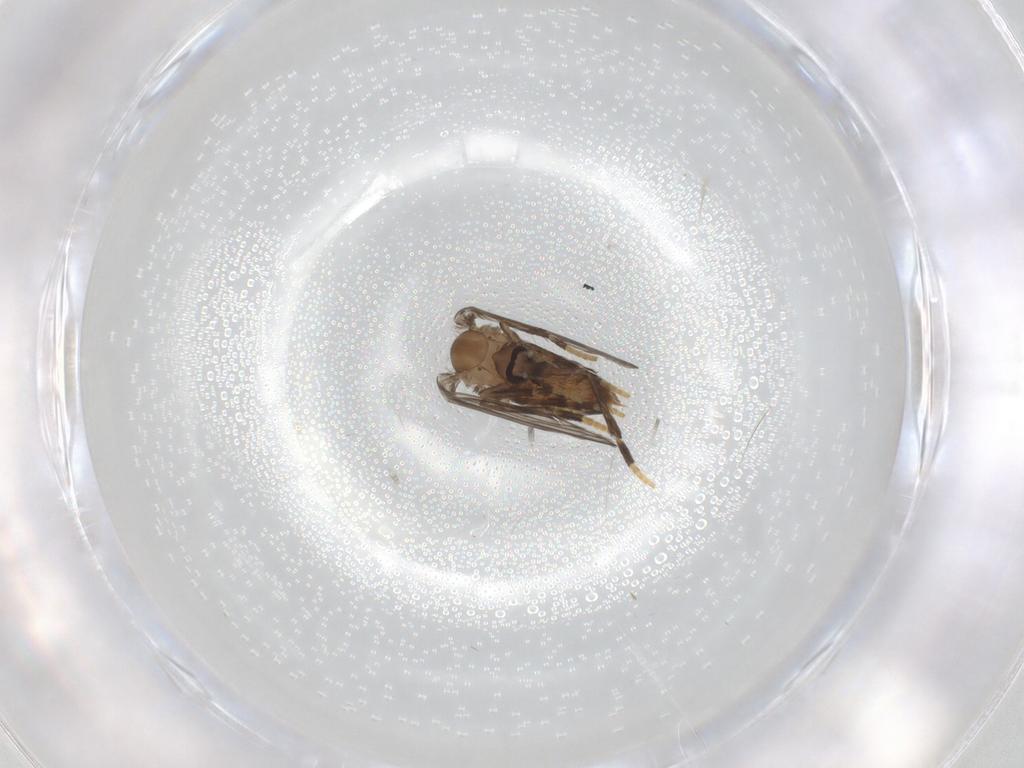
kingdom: Animalia
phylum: Arthropoda
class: Insecta
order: Diptera
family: Psychodidae
